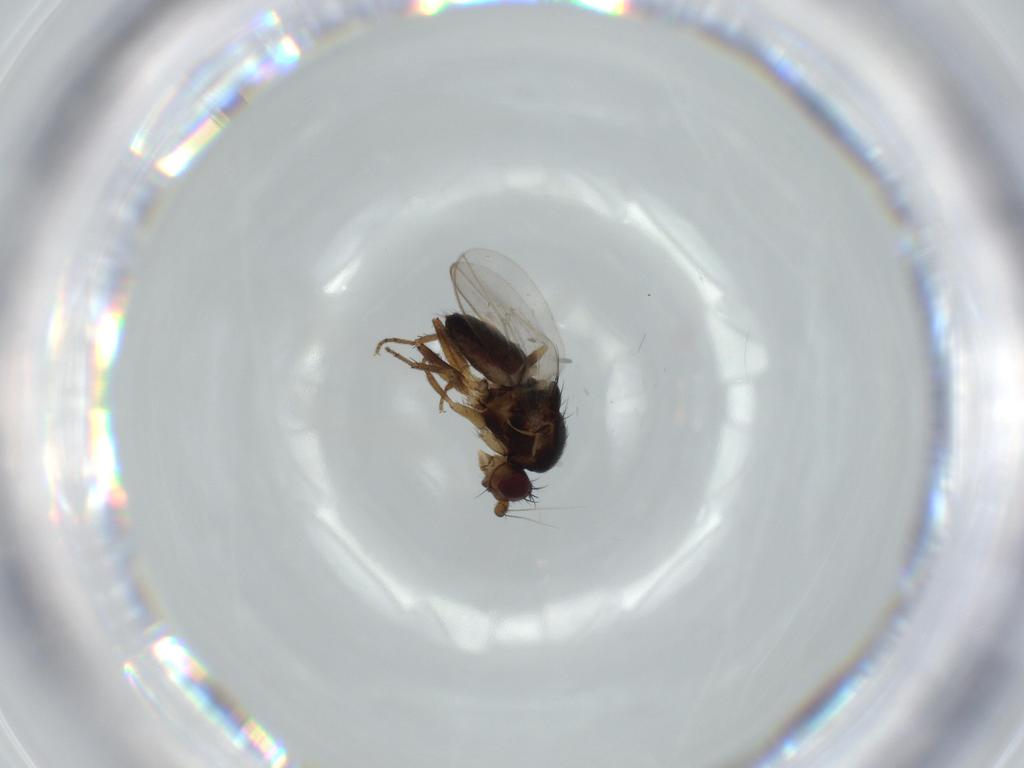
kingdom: Animalia
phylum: Arthropoda
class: Insecta
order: Diptera
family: Sphaeroceridae
